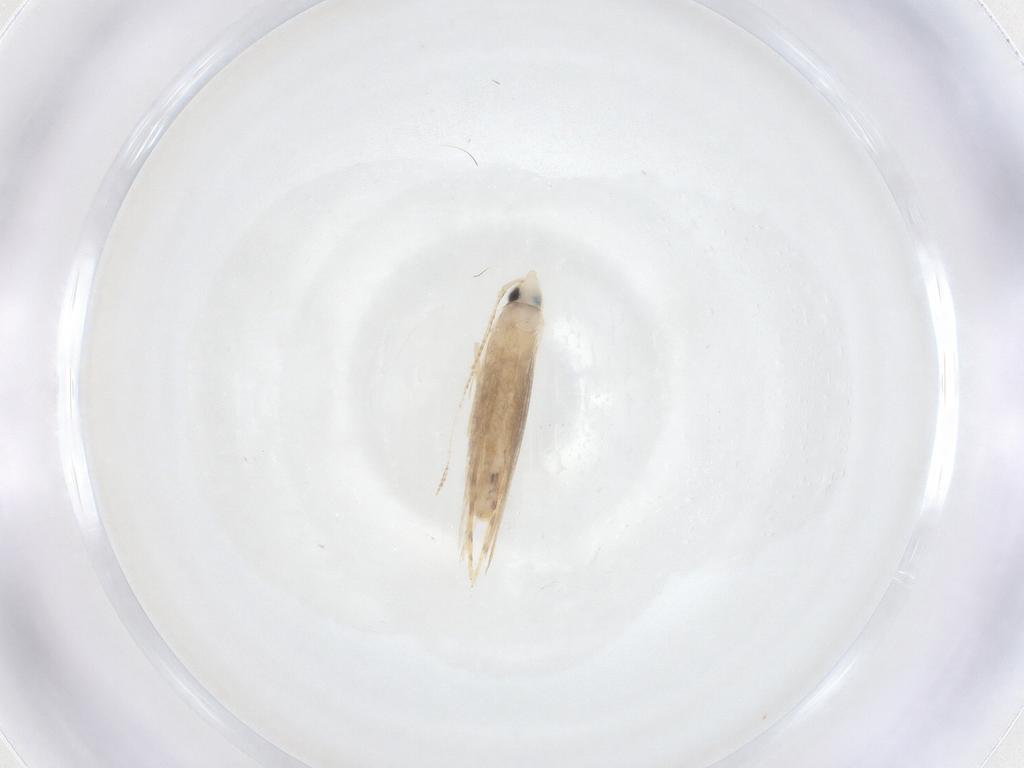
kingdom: Animalia
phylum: Arthropoda
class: Insecta
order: Lepidoptera
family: Tineidae
